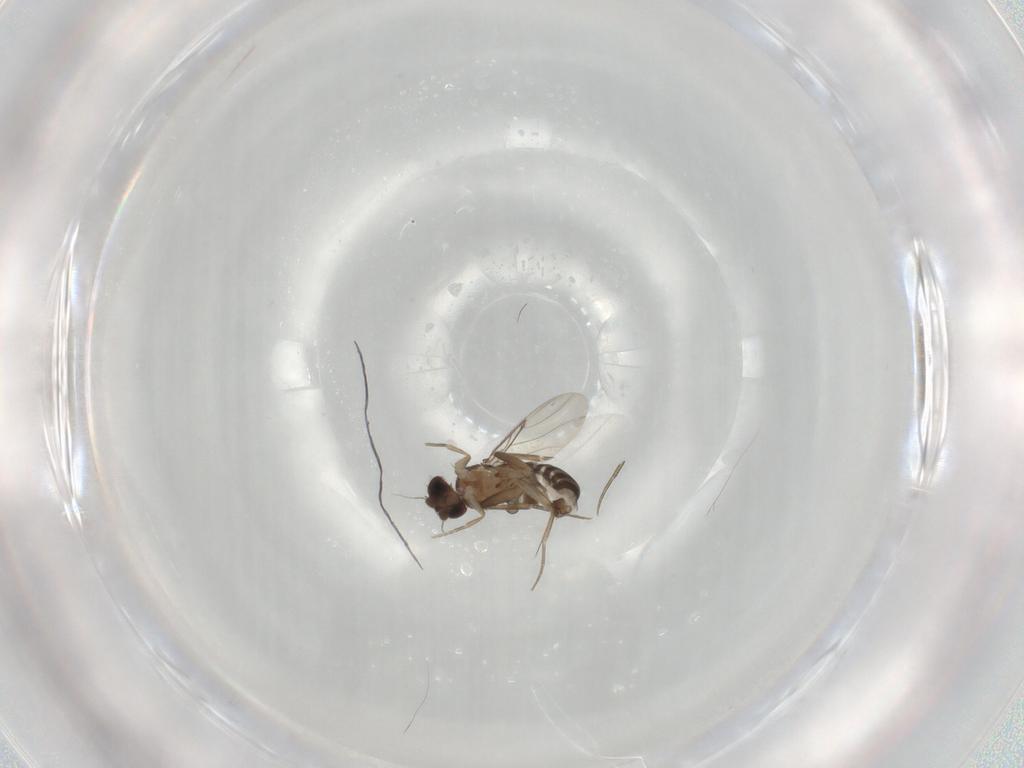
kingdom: Animalia
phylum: Arthropoda
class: Insecta
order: Diptera
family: Phoridae
